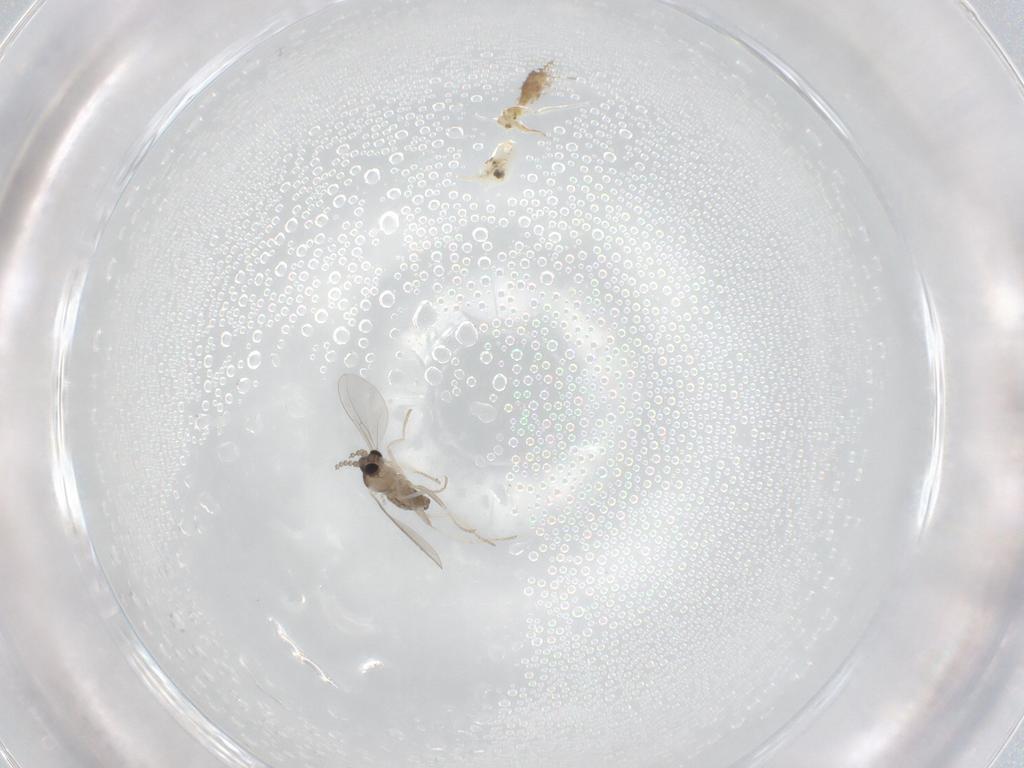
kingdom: Animalia
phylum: Arthropoda
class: Insecta
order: Diptera
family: Cecidomyiidae
